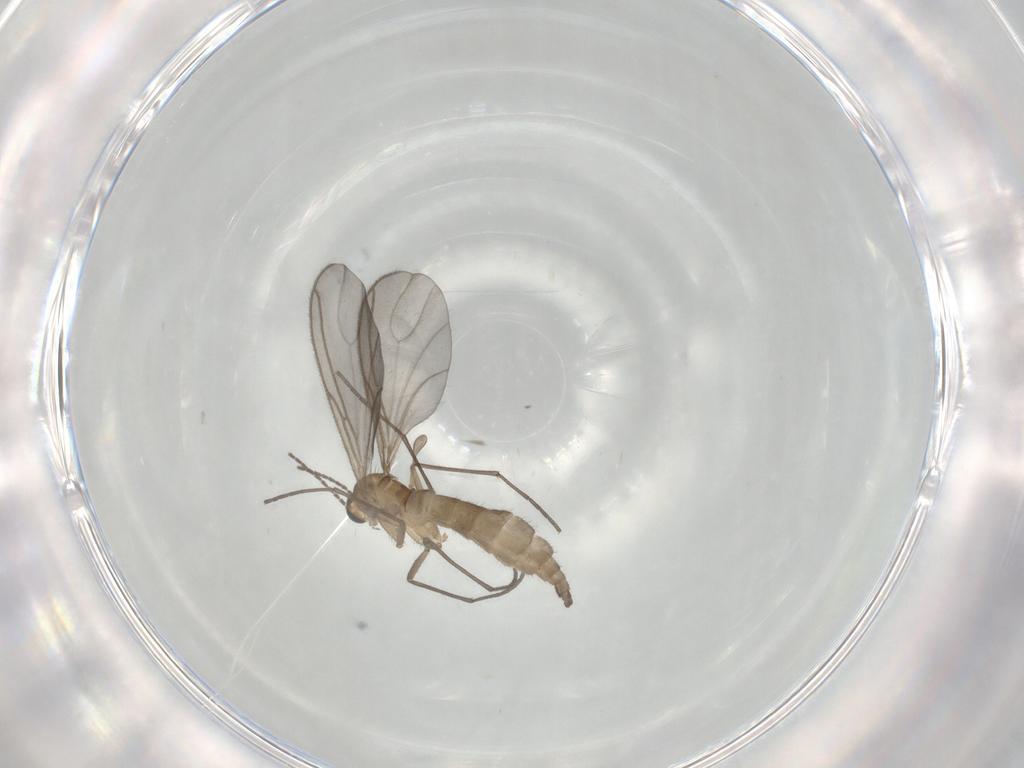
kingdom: Animalia
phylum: Arthropoda
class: Insecta
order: Diptera
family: Sciaridae
